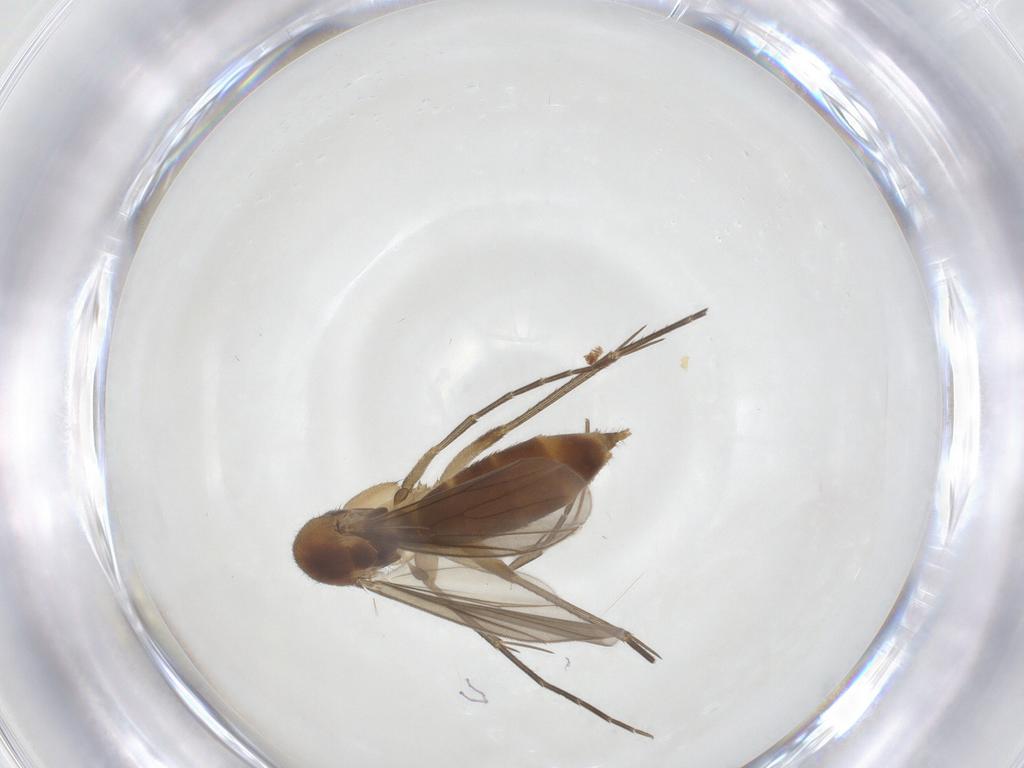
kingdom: Animalia
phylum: Arthropoda
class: Insecta
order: Diptera
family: Mycetophilidae
